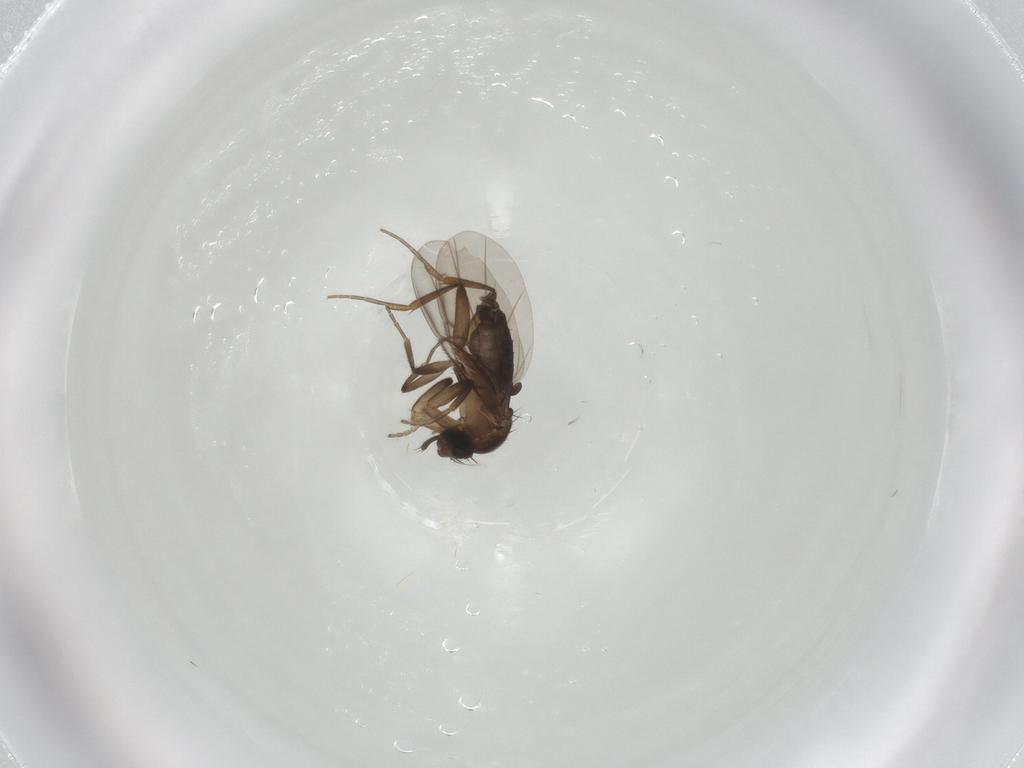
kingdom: Animalia
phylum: Arthropoda
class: Insecta
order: Diptera
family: Phoridae
